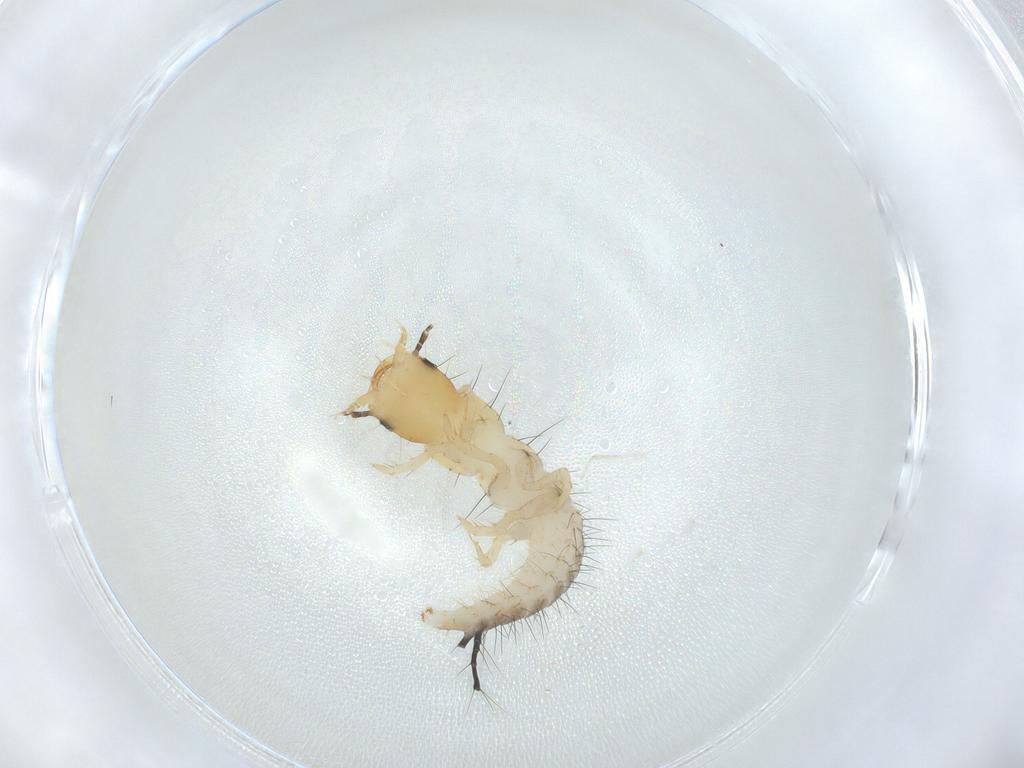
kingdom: Animalia
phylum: Arthropoda
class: Insecta
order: Coleoptera
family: Carabidae
